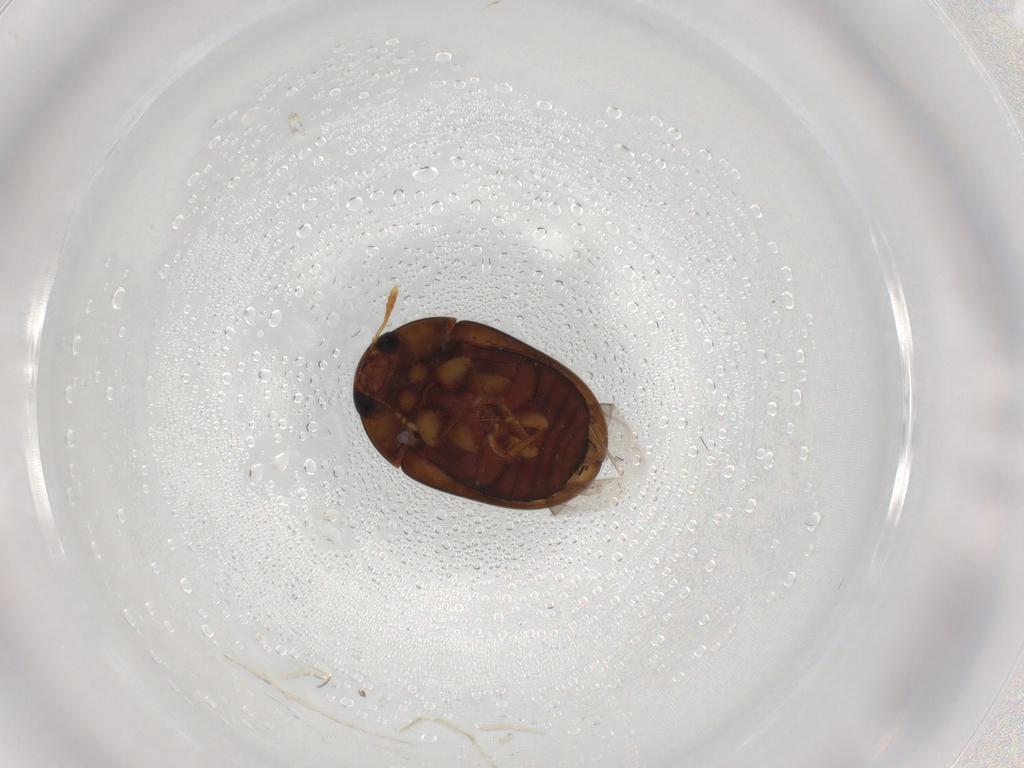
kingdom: Animalia
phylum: Arthropoda
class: Insecta
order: Coleoptera
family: Phalacridae
